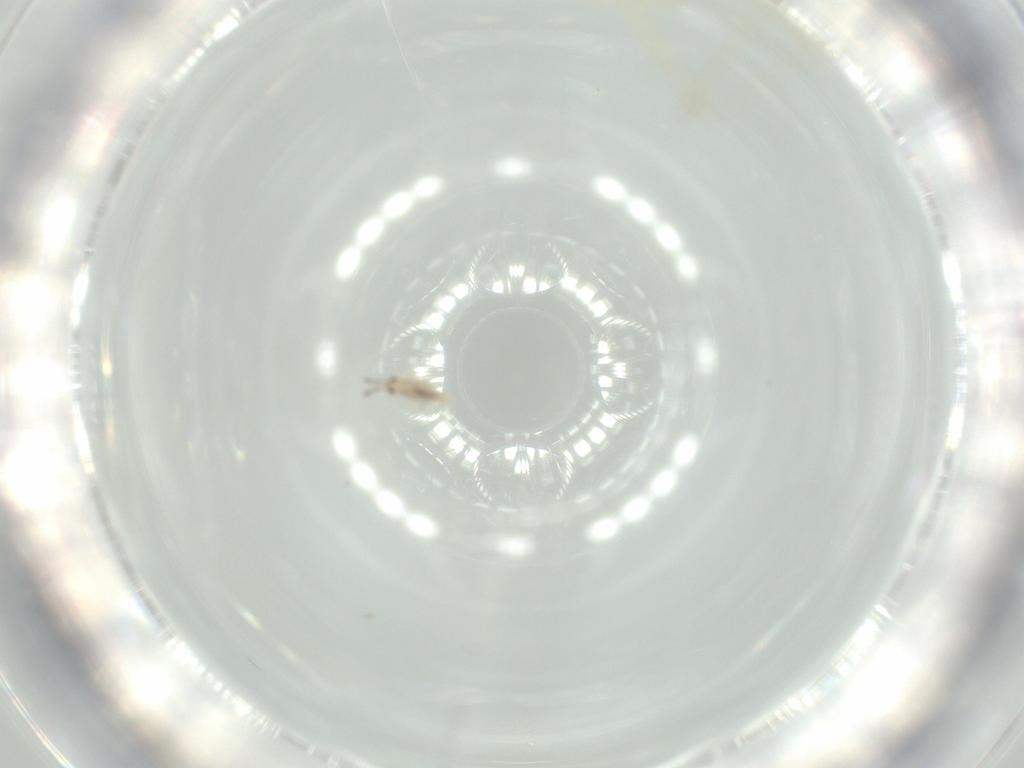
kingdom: Animalia
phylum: Arthropoda
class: Collembola
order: Entomobryomorpha
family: Entomobryidae
